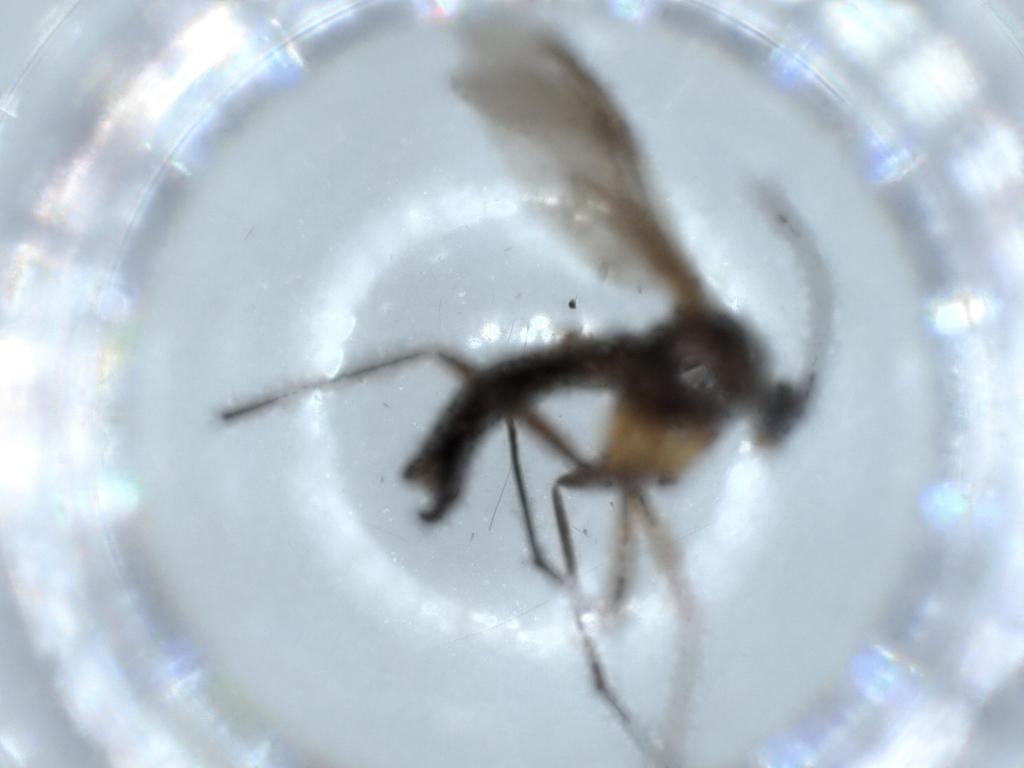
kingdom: Animalia
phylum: Arthropoda
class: Insecta
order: Diptera
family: Sciaridae
